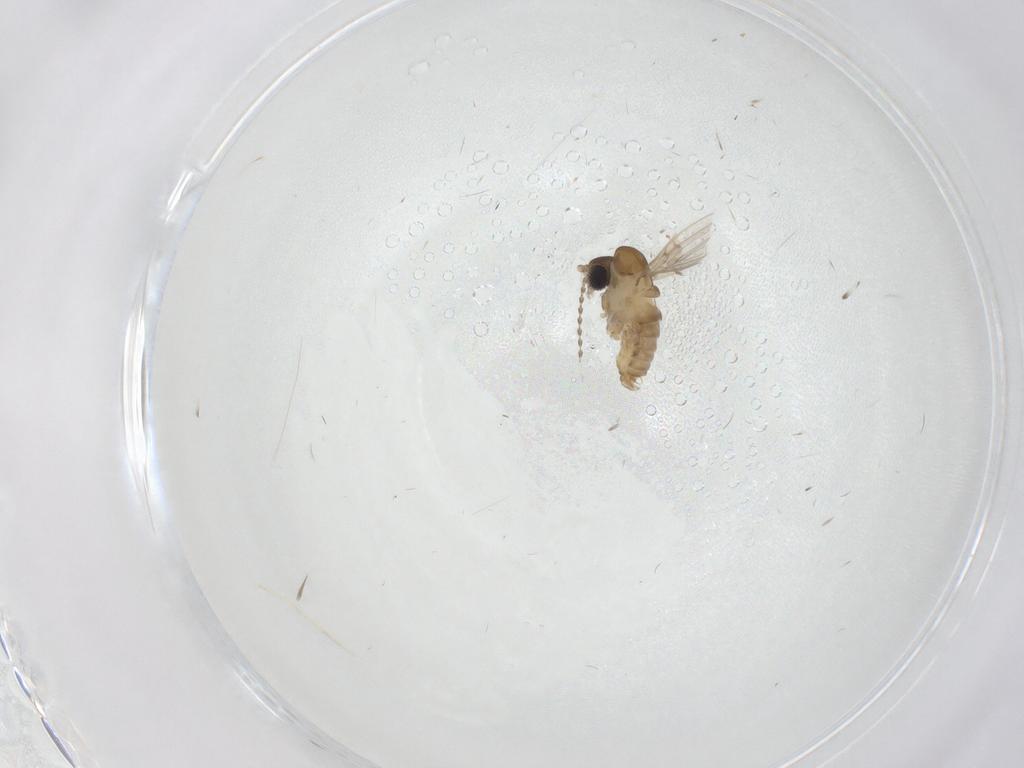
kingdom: Animalia
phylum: Arthropoda
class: Insecta
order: Diptera
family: Psychodidae
